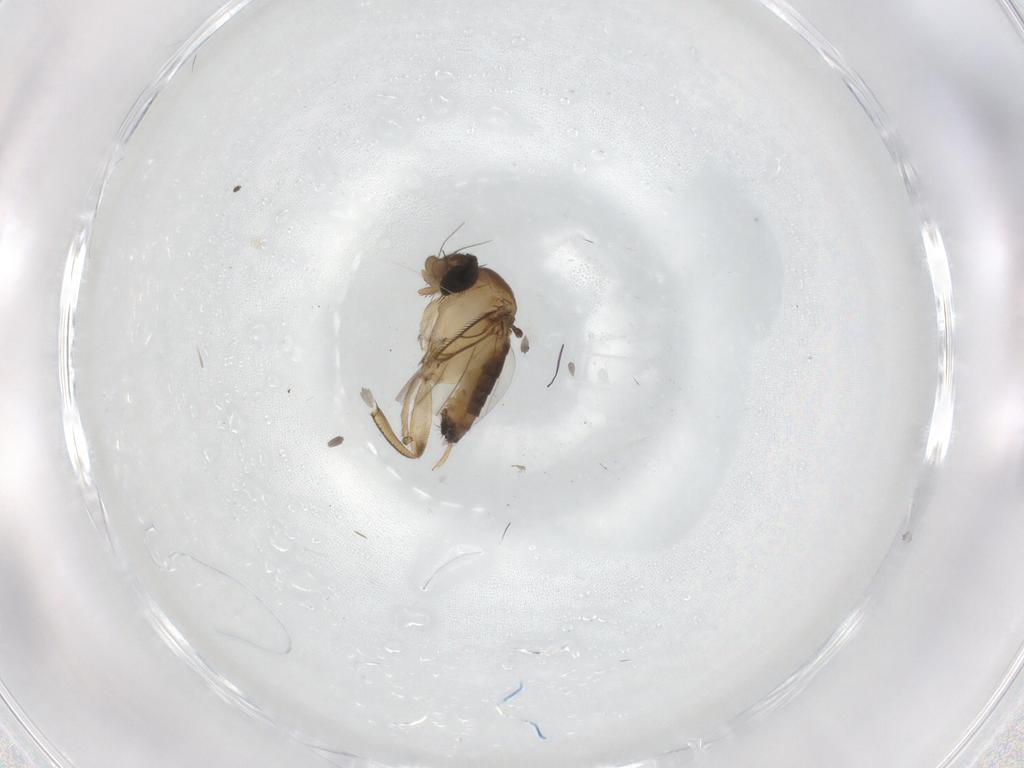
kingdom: Animalia
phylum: Arthropoda
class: Insecta
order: Diptera
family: Phoridae
